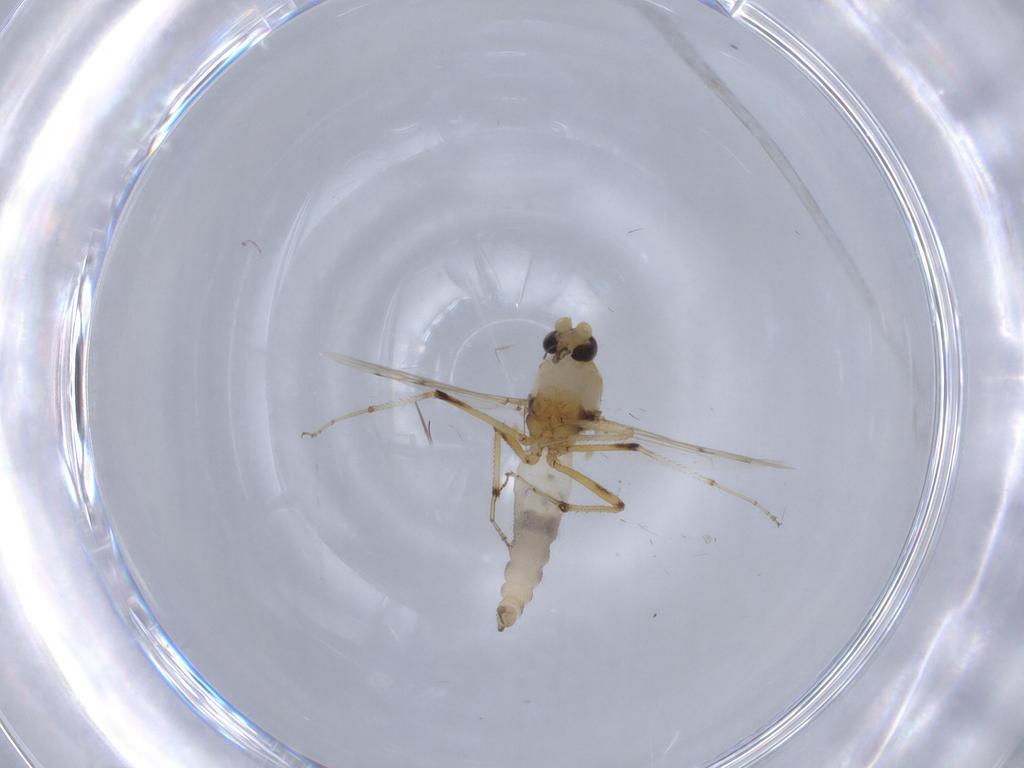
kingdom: Animalia
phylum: Arthropoda
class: Insecta
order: Diptera
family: Ceratopogonidae
